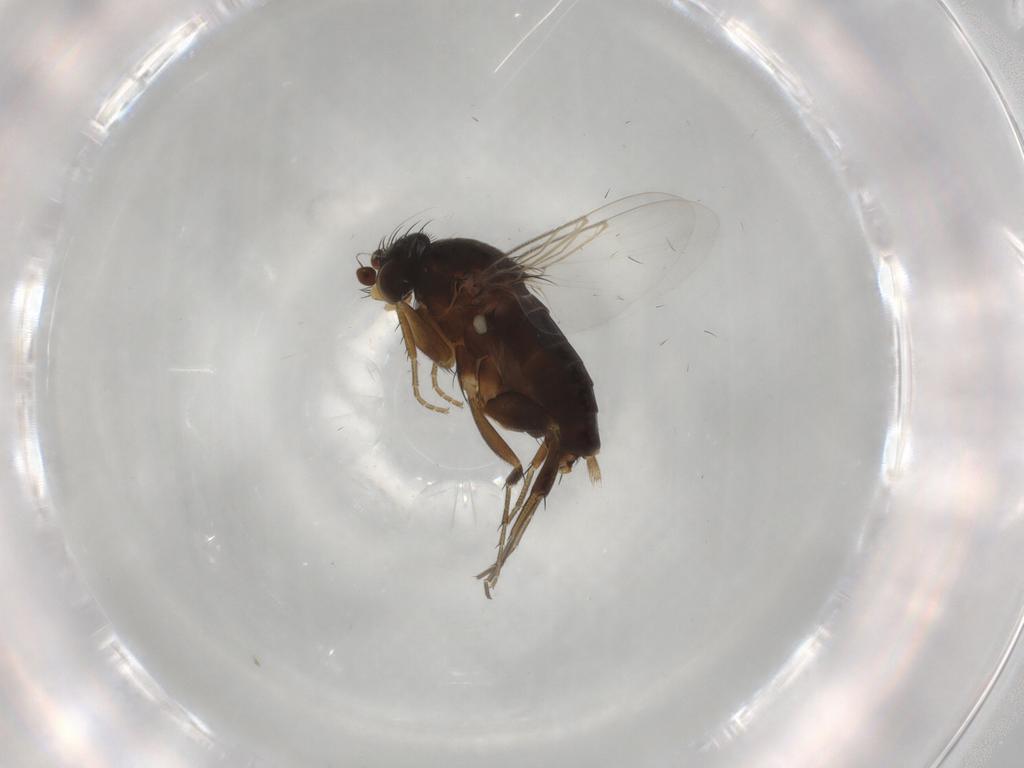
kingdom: Animalia
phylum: Arthropoda
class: Insecta
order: Diptera
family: Phoridae
